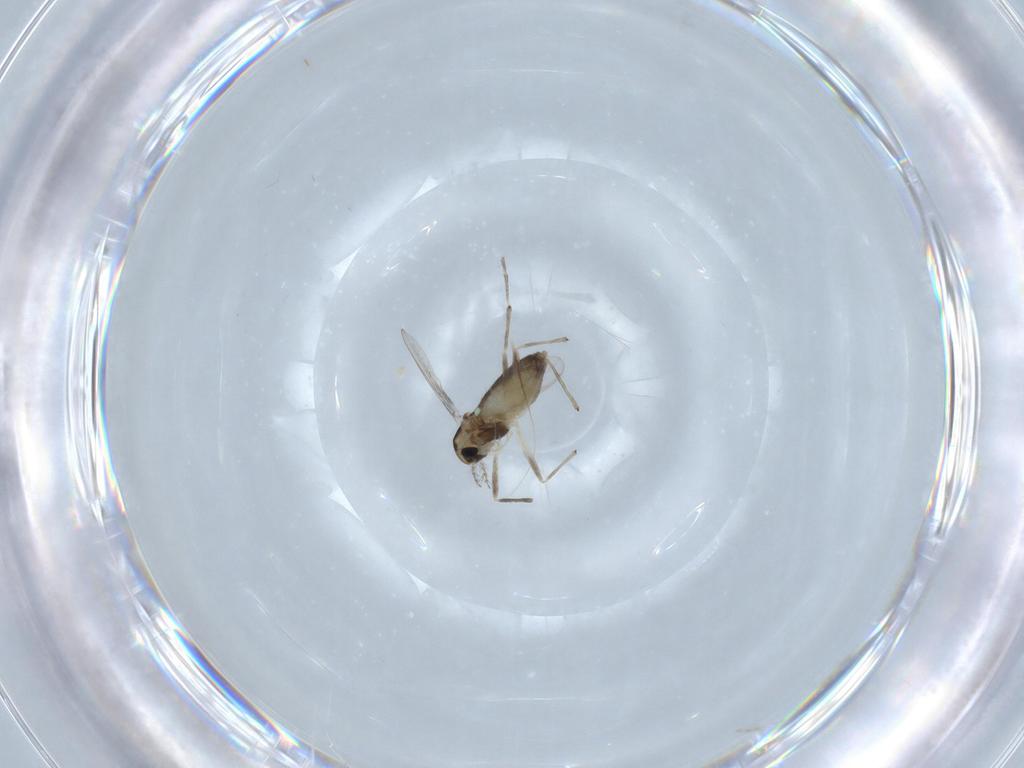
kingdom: Animalia
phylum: Arthropoda
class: Insecta
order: Diptera
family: Chironomidae
